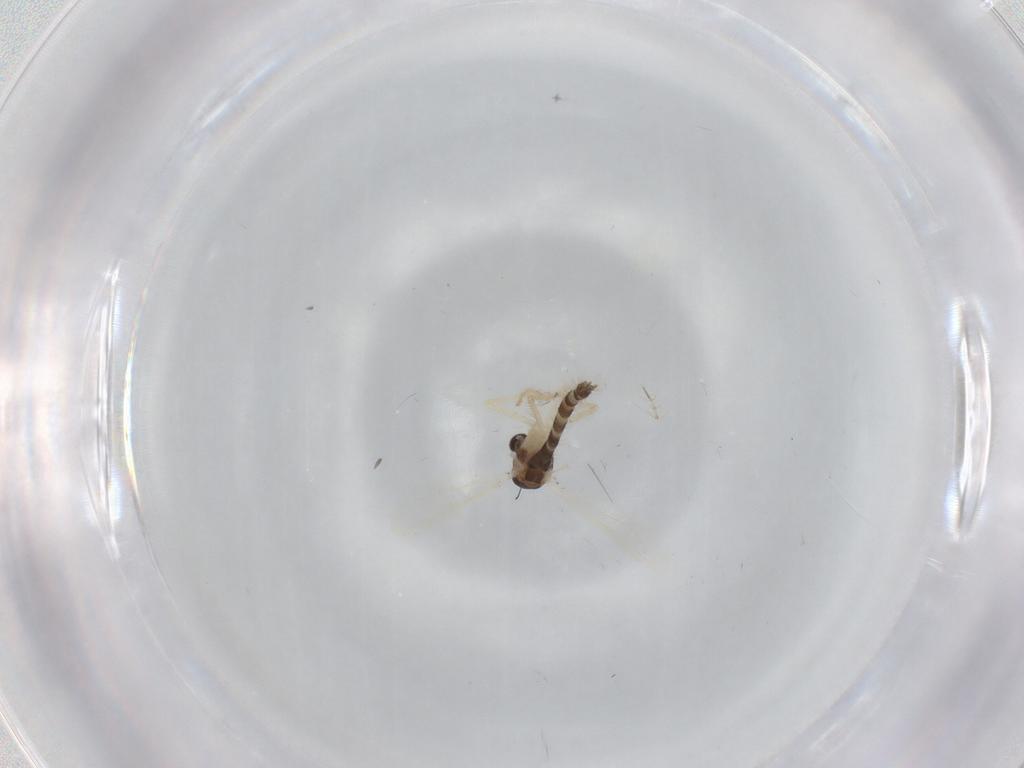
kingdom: Animalia
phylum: Arthropoda
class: Insecta
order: Diptera
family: Chironomidae
